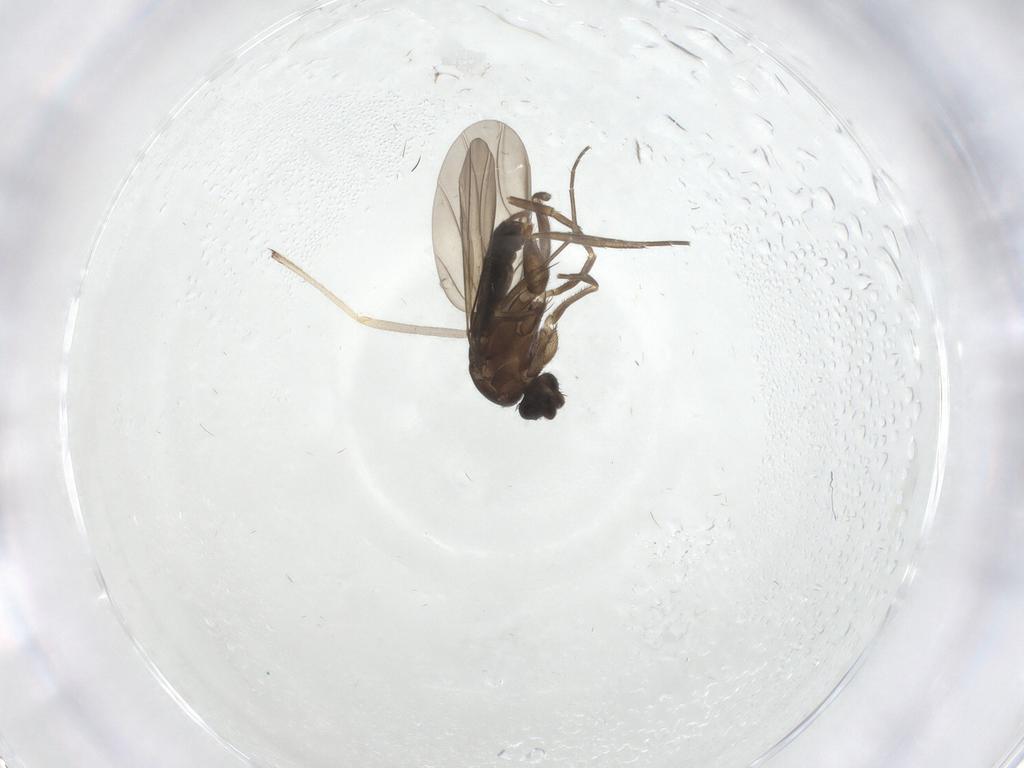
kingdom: Animalia
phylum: Arthropoda
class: Insecta
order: Diptera
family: Phoridae
